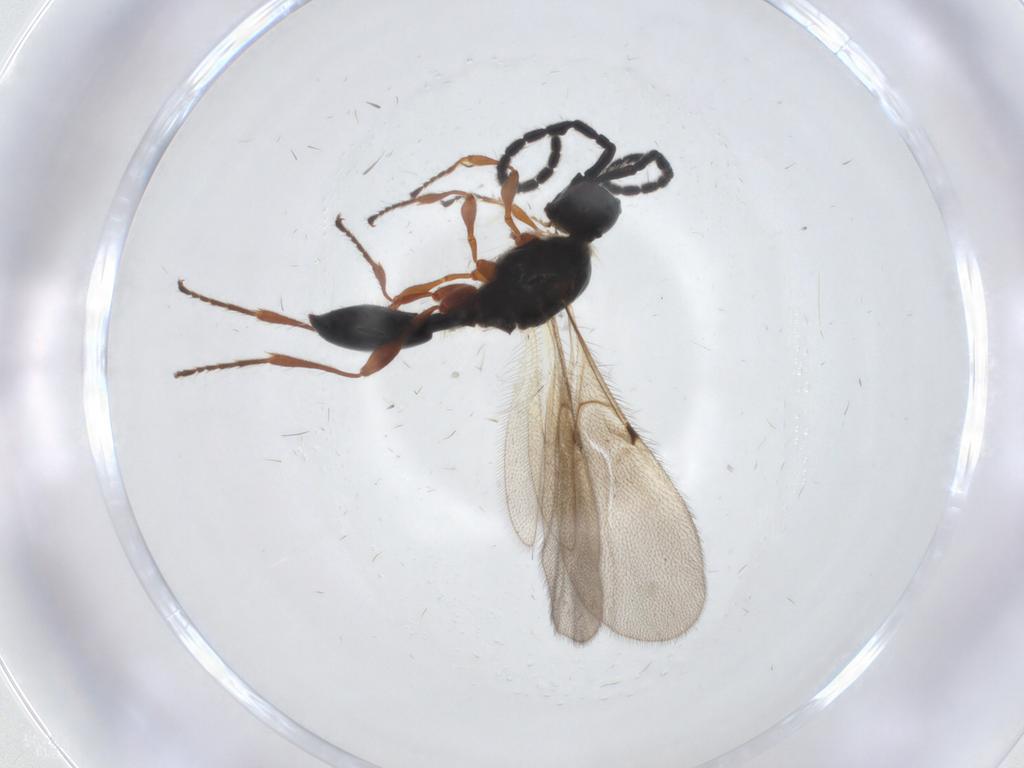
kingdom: Animalia
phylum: Arthropoda
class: Insecta
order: Hymenoptera
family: Diapriidae
